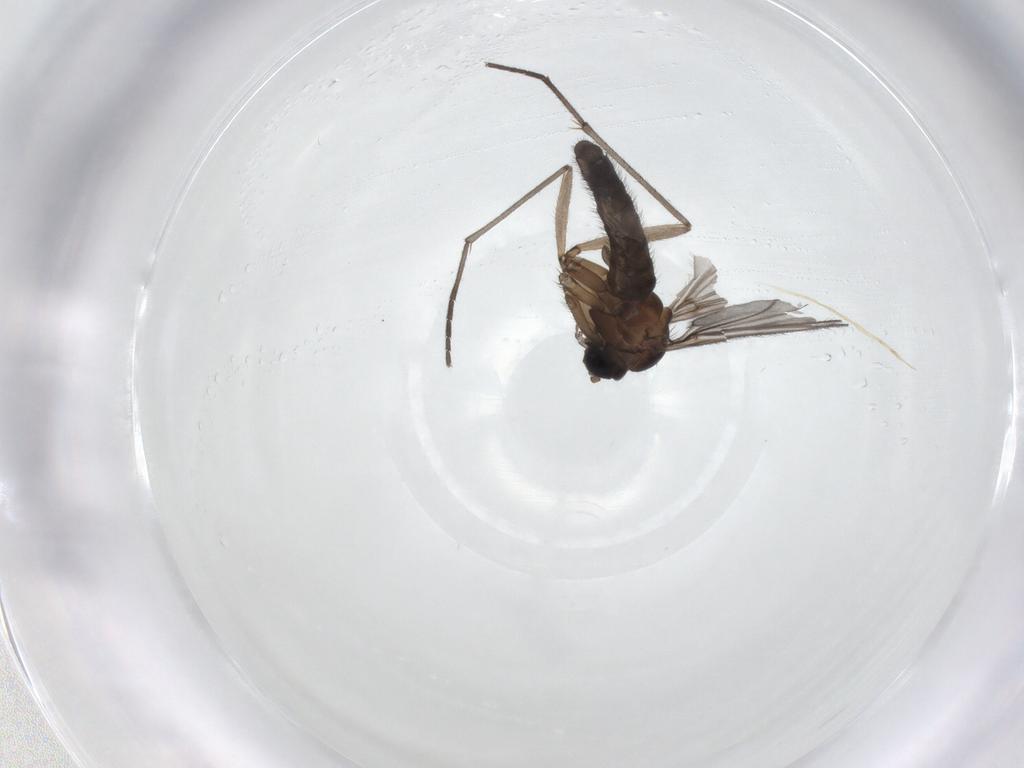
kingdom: Animalia
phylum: Arthropoda
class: Insecta
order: Diptera
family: Sciaridae
